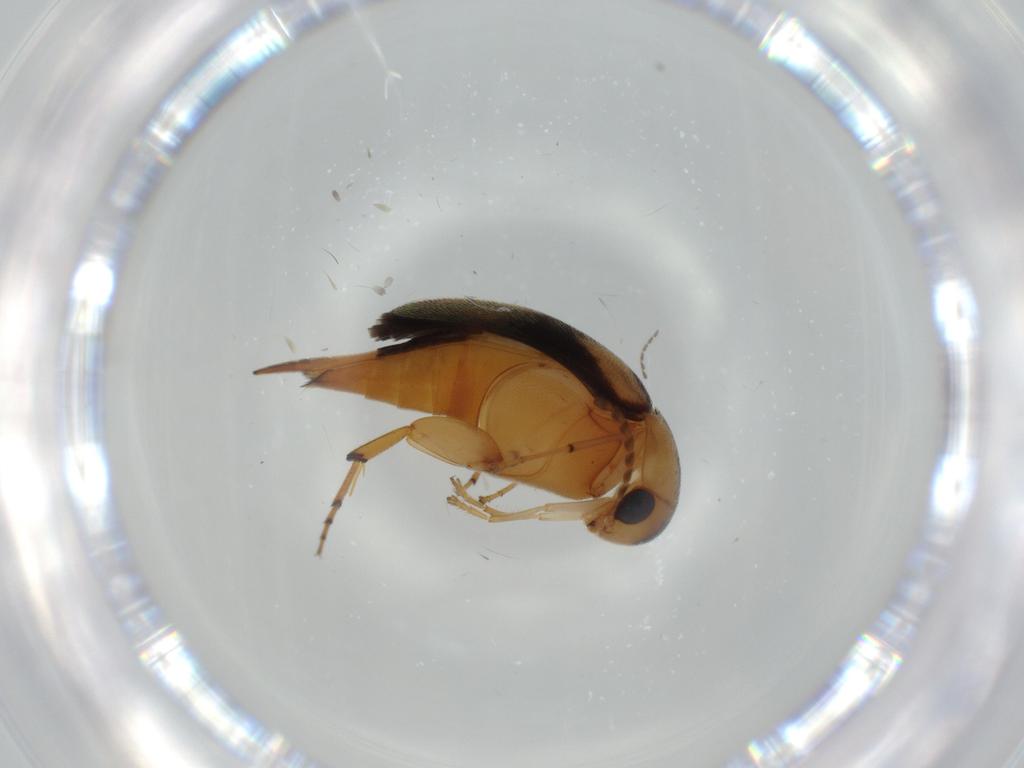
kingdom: Animalia
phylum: Arthropoda
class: Insecta
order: Coleoptera
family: Mordellidae
